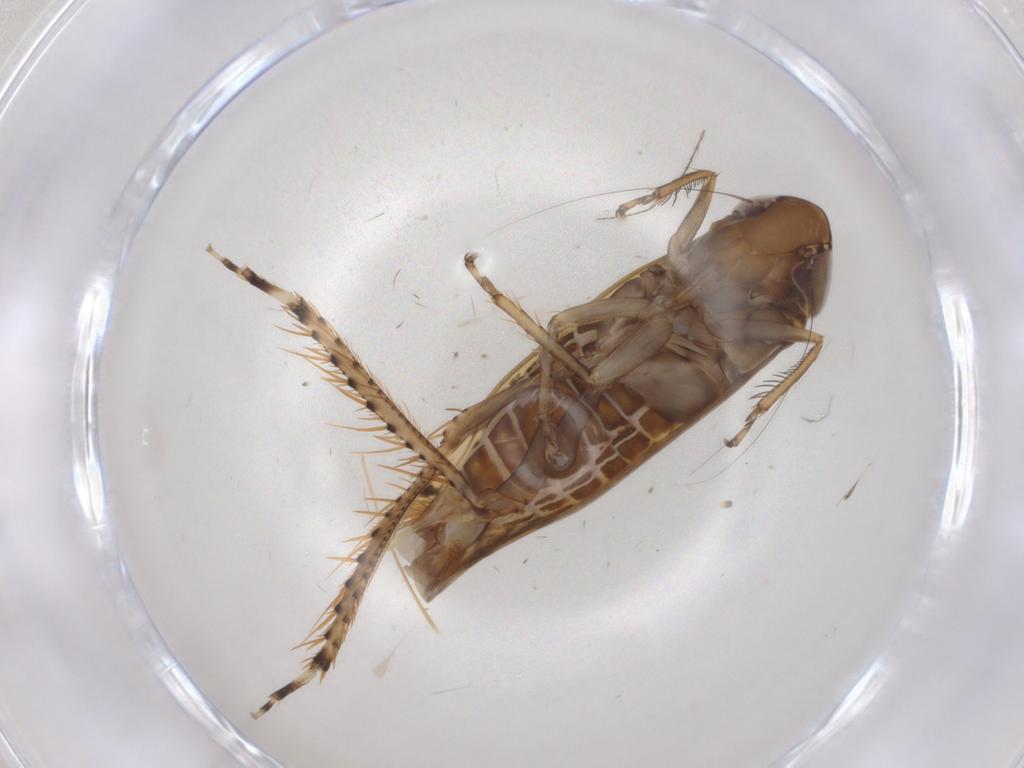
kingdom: Animalia
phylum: Arthropoda
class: Insecta
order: Hemiptera
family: Cicadellidae
